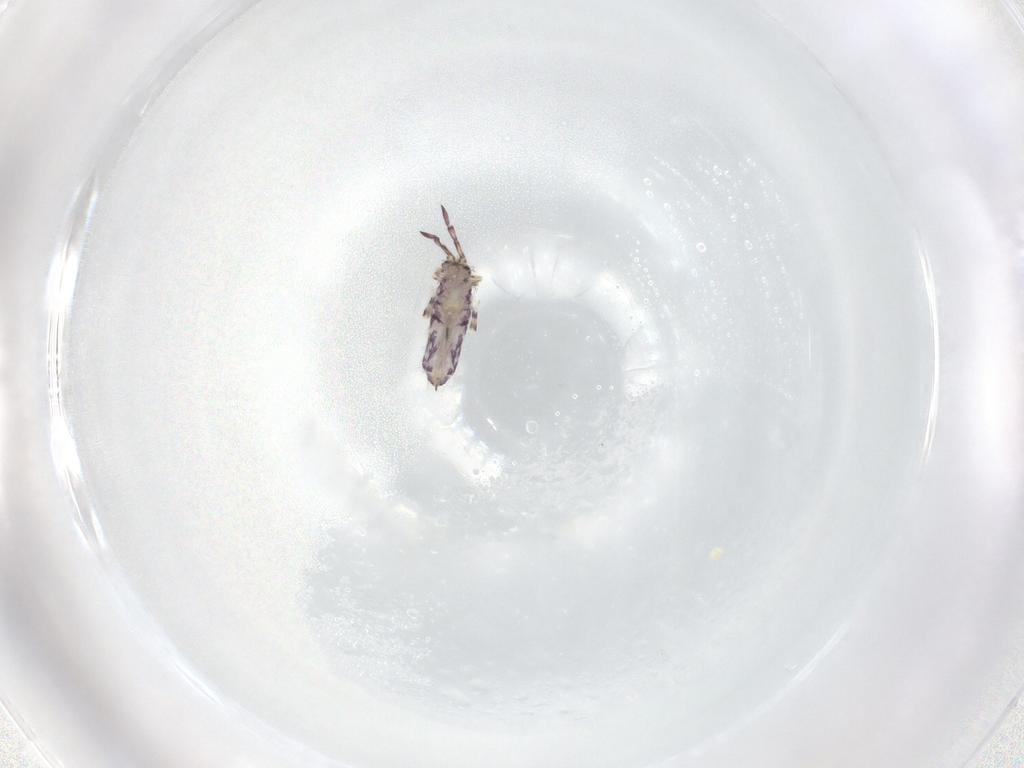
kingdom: Animalia
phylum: Arthropoda
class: Collembola
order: Entomobryomorpha
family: Entomobryidae
